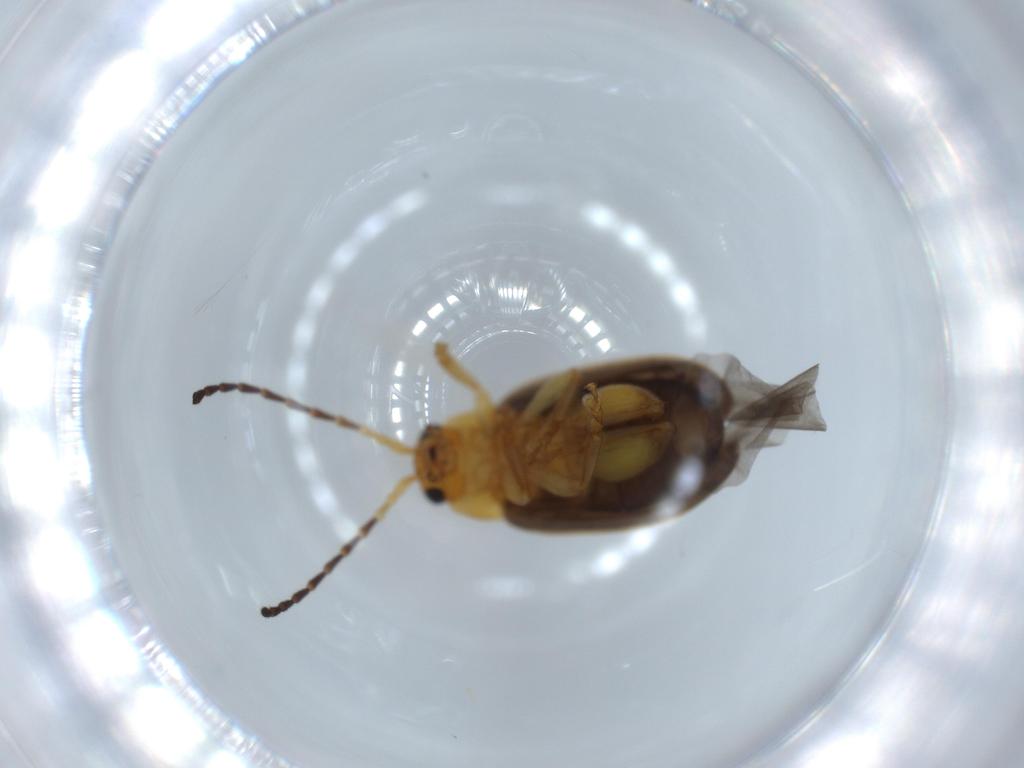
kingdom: Animalia
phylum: Arthropoda
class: Insecta
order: Coleoptera
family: Chrysomelidae
